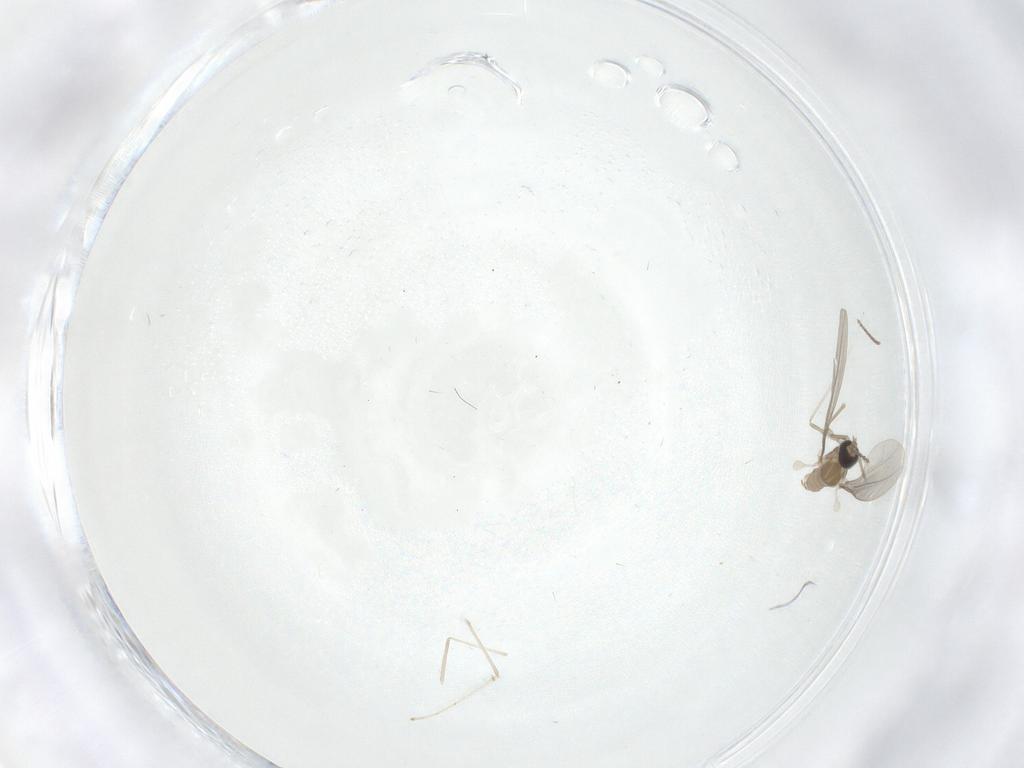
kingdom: Animalia
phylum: Arthropoda
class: Insecta
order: Diptera
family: Cecidomyiidae
